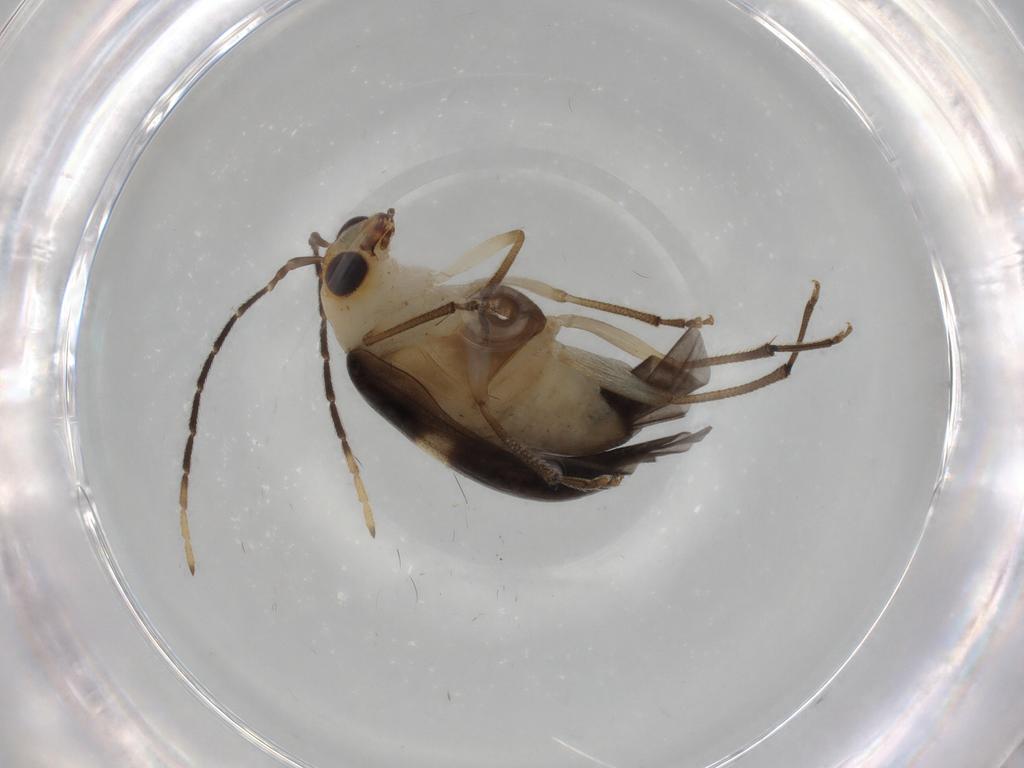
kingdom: Animalia
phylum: Arthropoda
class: Insecta
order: Coleoptera
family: Chrysomelidae
